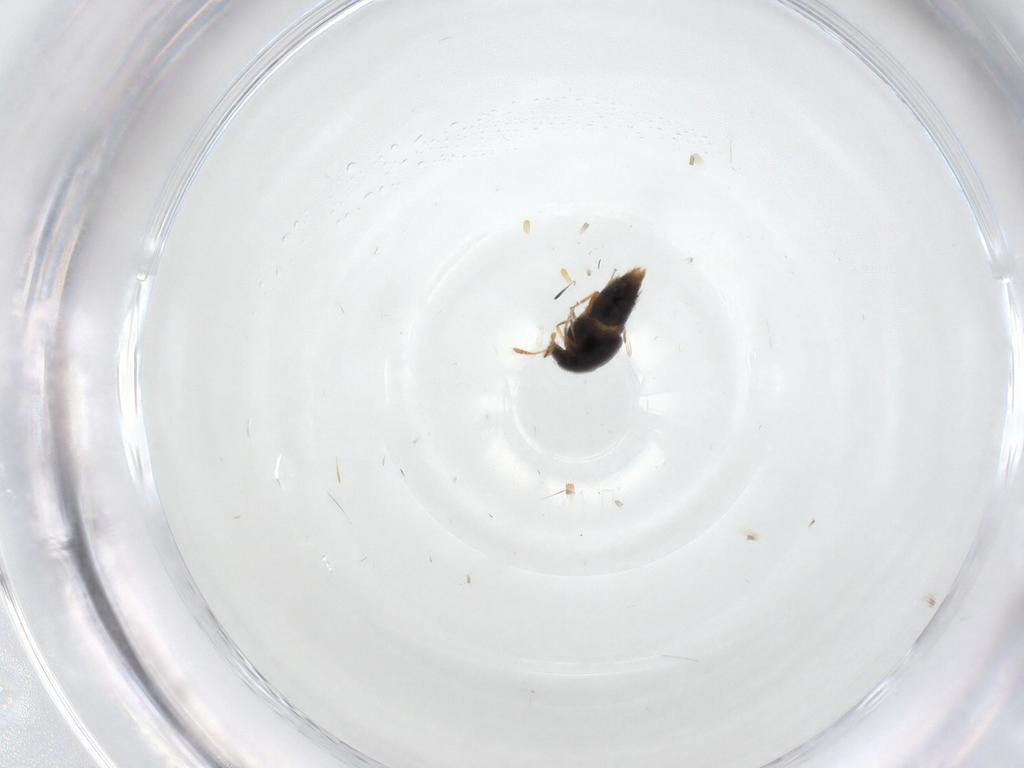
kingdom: Animalia
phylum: Arthropoda
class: Insecta
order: Coleoptera
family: Staphylinidae
